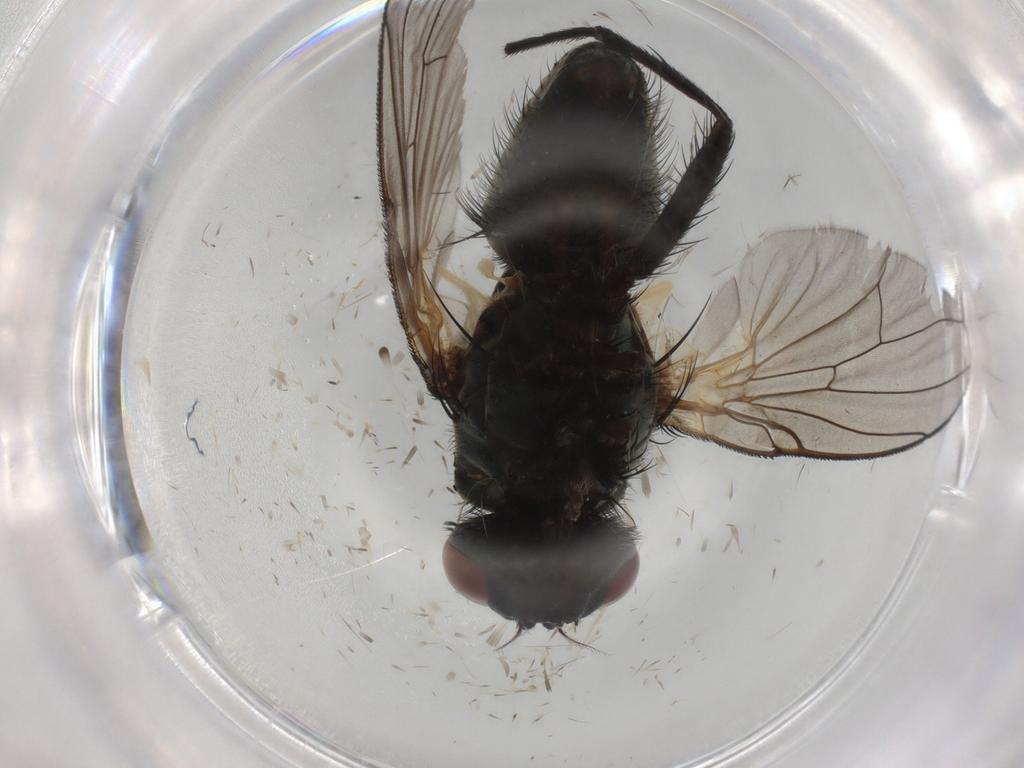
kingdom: Animalia
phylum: Arthropoda
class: Insecta
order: Diptera
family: Muscidae
